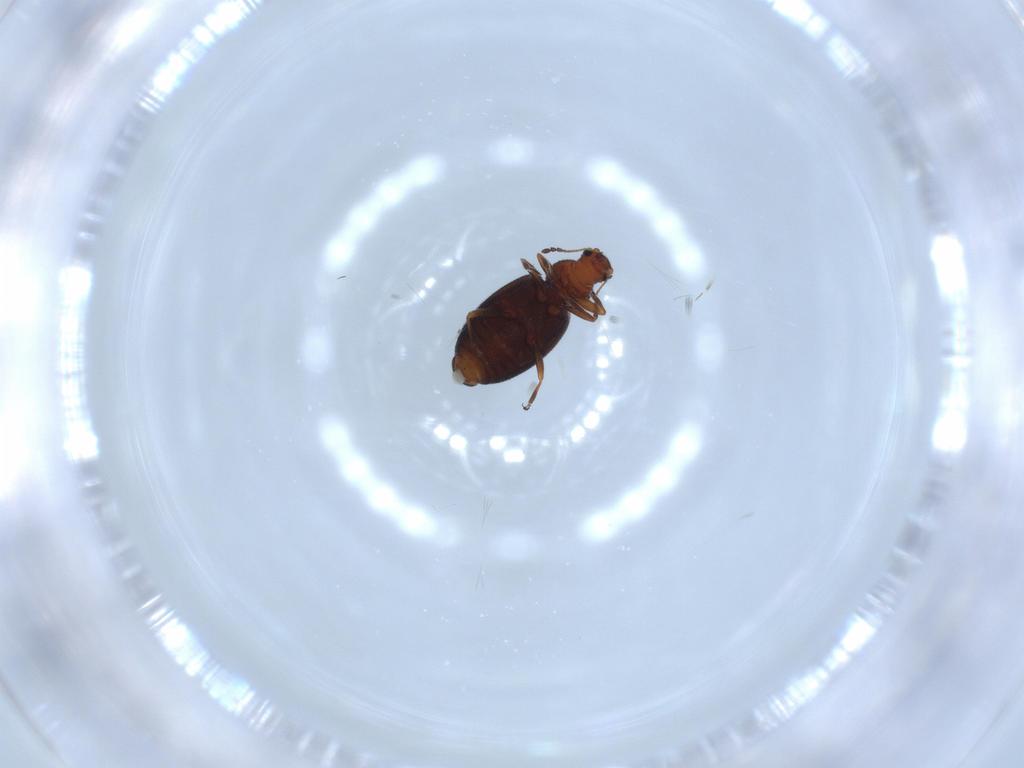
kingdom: Animalia
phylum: Arthropoda
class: Insecta
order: Coleoptera
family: Latridiidae
